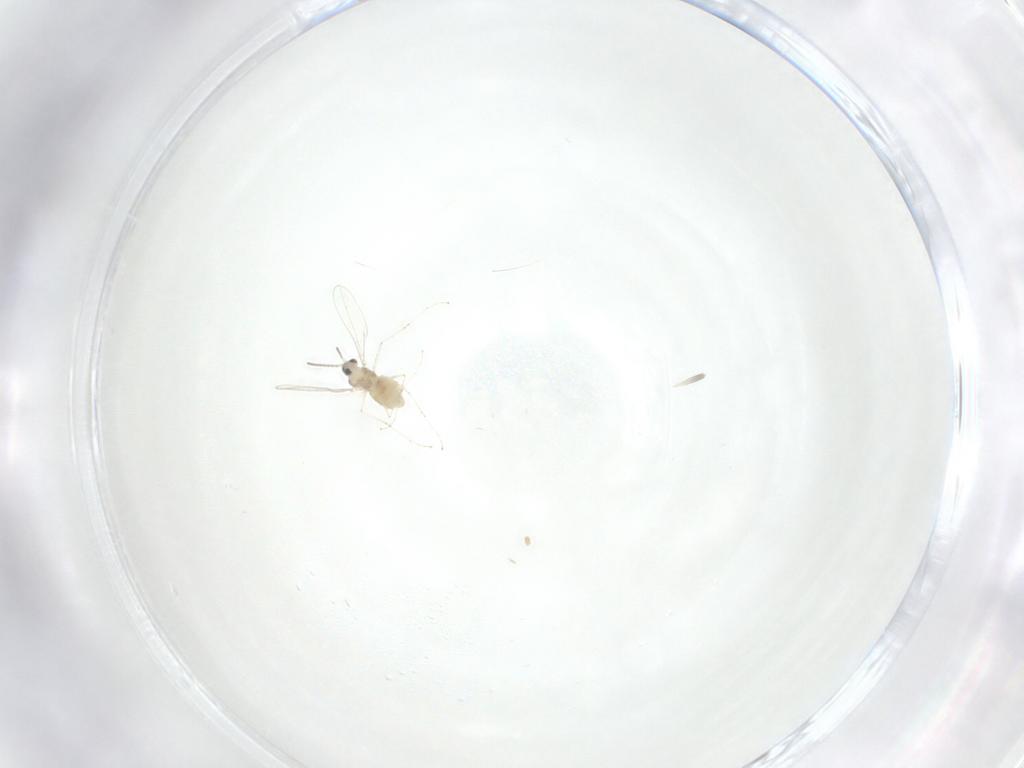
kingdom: Animalia
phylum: Arthropoda
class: Insecta
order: Diptera
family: Cecidomyiidae
